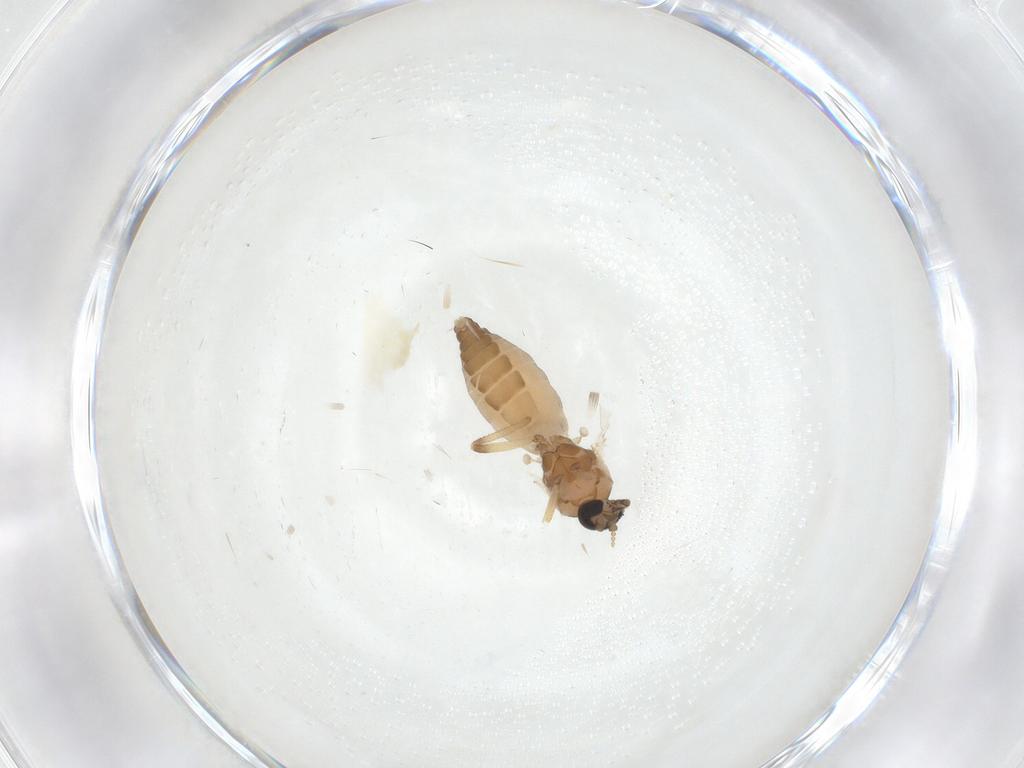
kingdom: Animalia
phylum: Arthropoda
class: Insecta
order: Diptera
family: Ceratopogonidae
